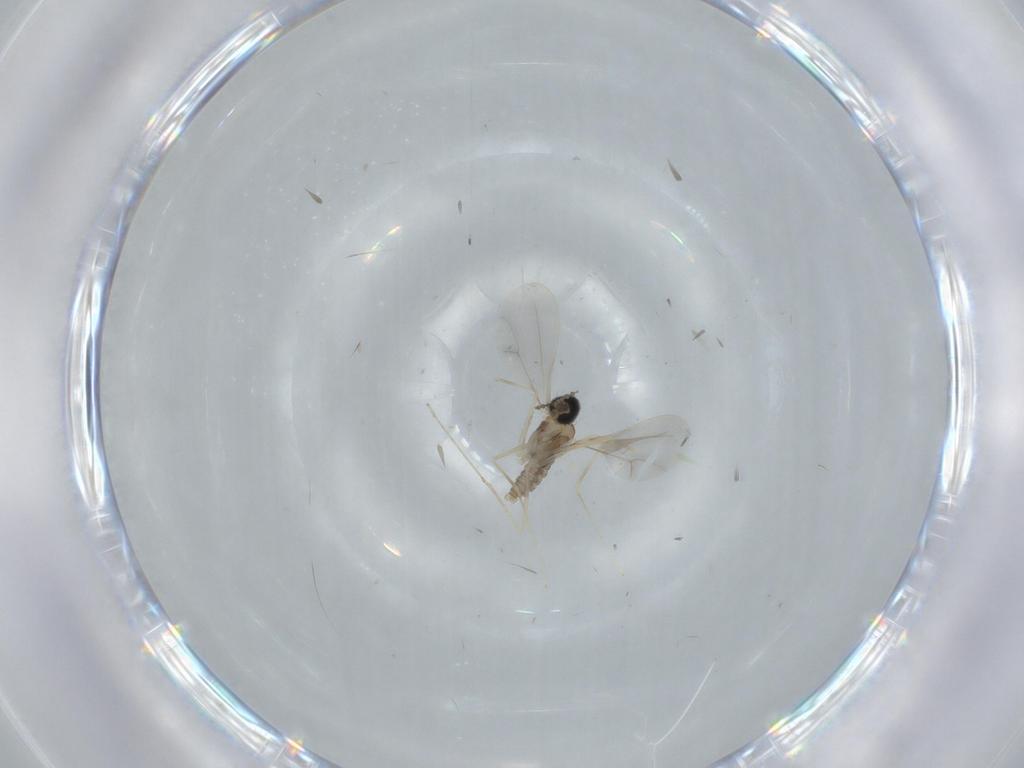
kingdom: Animalia
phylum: Arthropoda
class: Insecta
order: Diptera
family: Cecidomyiidae
